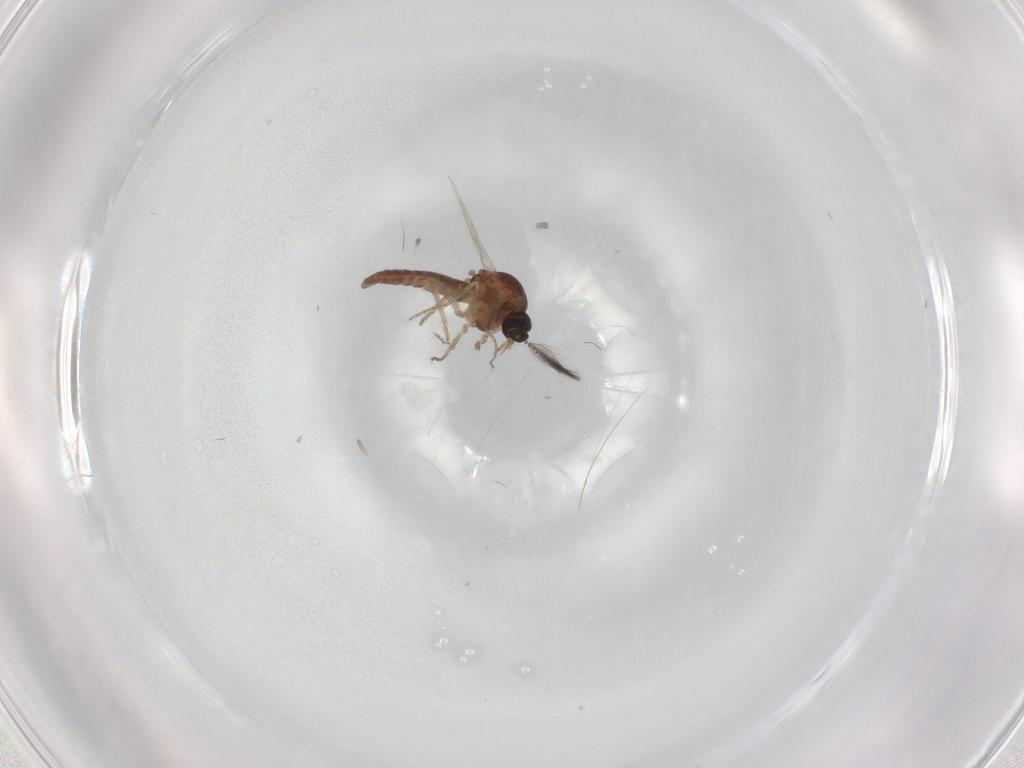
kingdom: Animalia
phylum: Arthropoda
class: Insecta
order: Diptera
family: Ceratopogonidae
